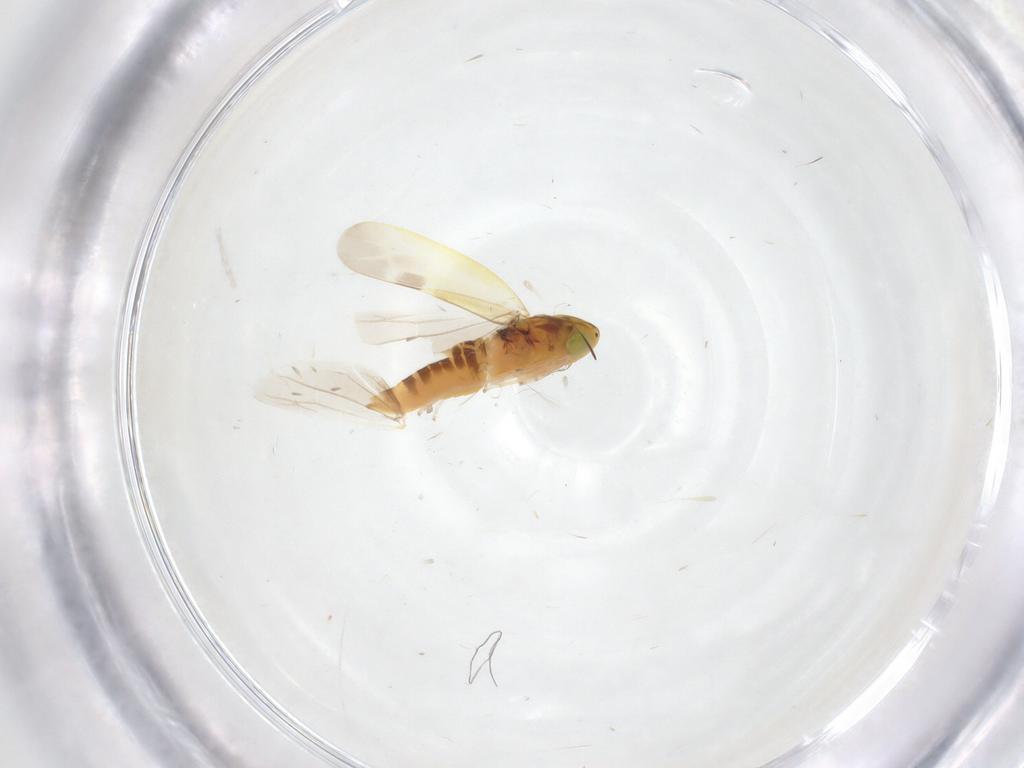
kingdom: Animalia
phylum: Arthropoda
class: Insecta
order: Hemiptera
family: Cicadellidae
